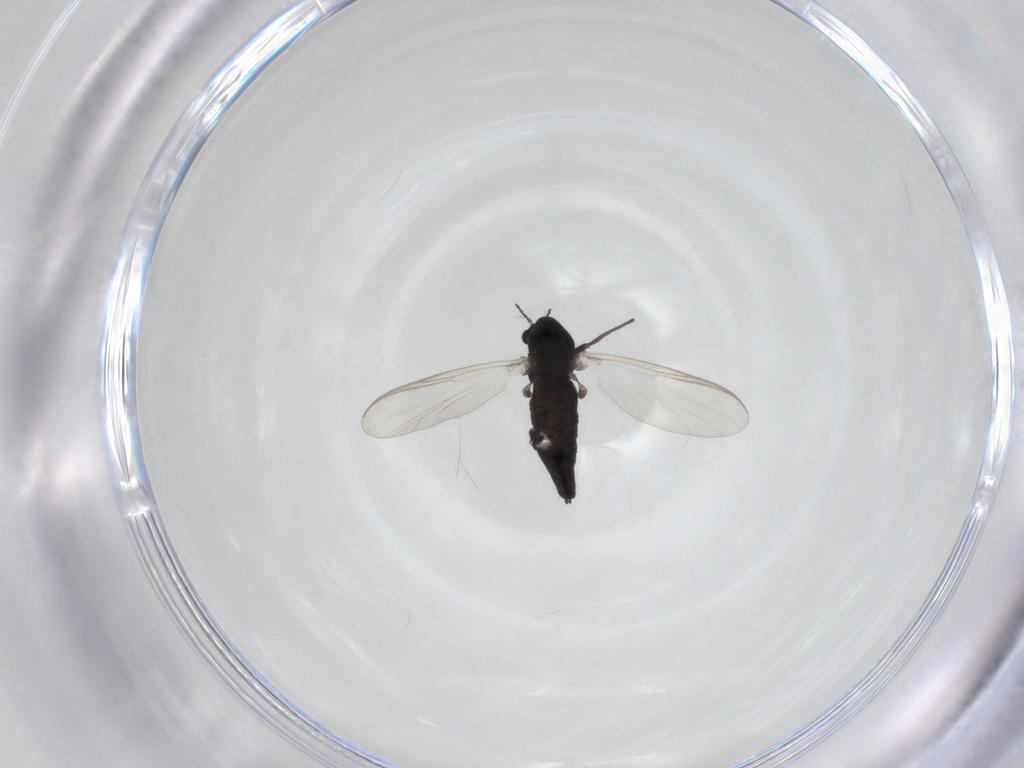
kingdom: Animalia
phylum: Arthropoda
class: Insecta
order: Diptera
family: Chironomidae
